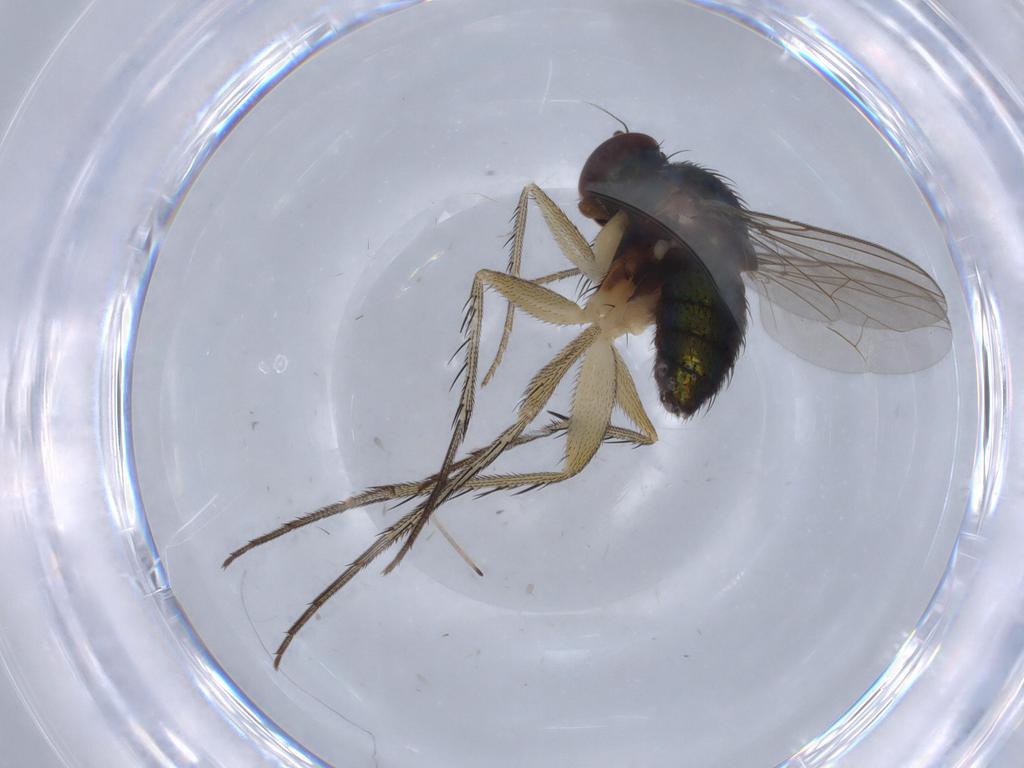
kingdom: Animalia
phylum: Arthropoda
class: Insecta
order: Diptera
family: Dolichopodidae
